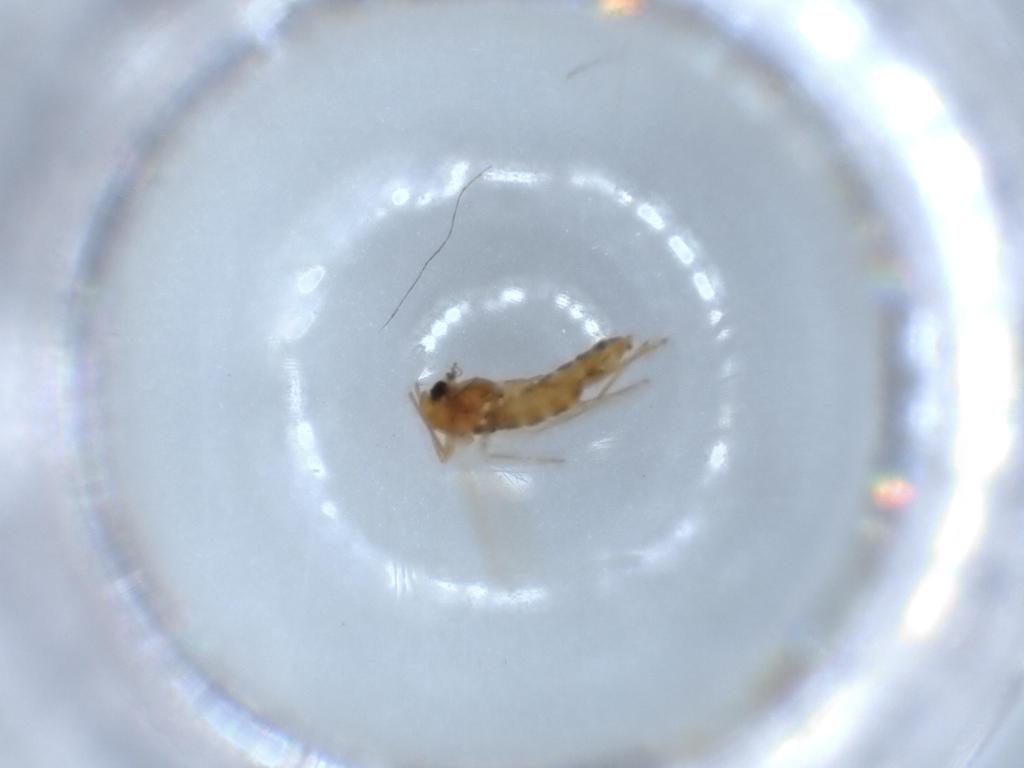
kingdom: Animalia
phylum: Arthropoda
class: Insecta
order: Diptera
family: Chironomidae
